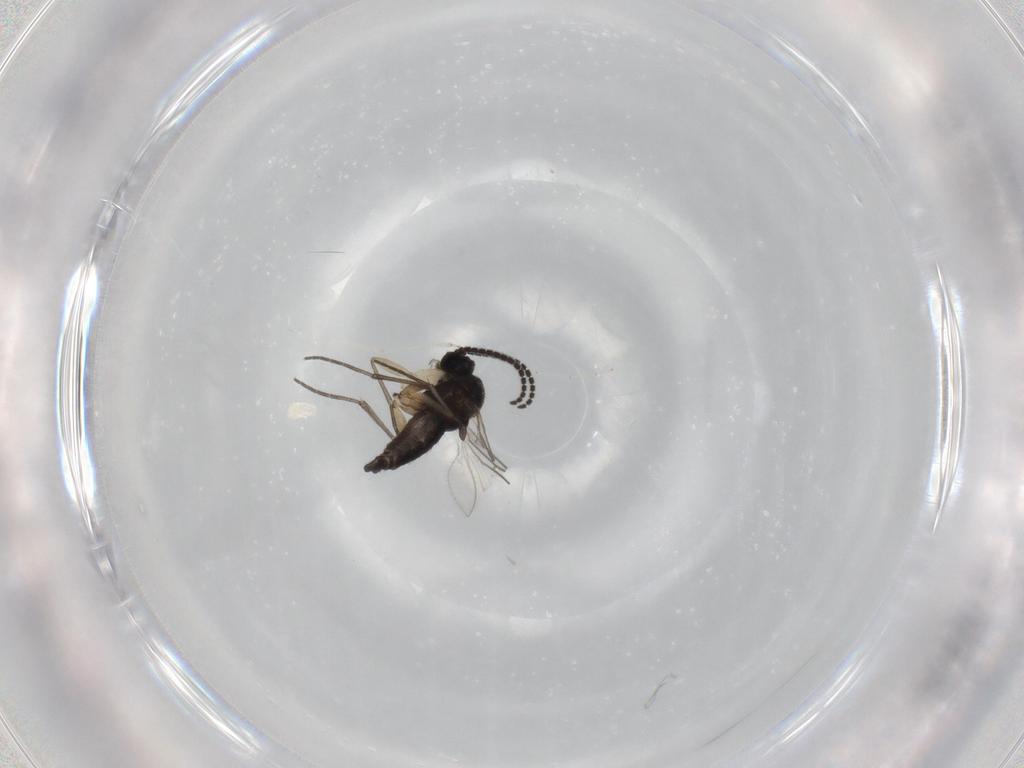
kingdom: Animalia
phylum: Arthropoda
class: Insecta
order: Diptera
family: Sciaridae
